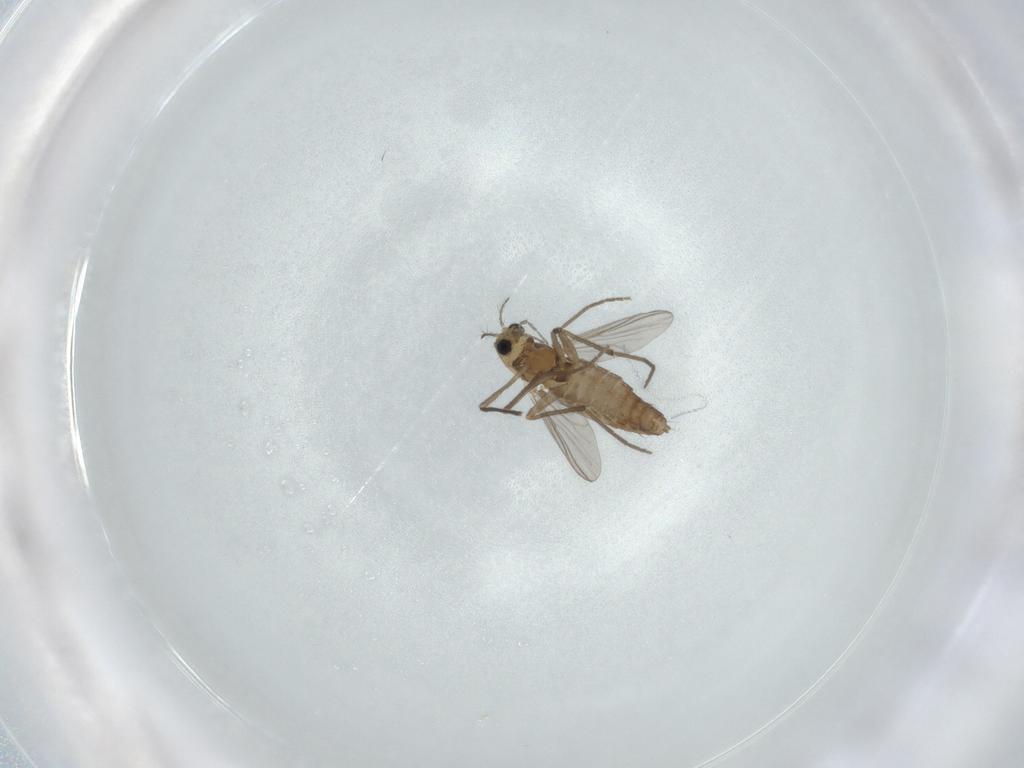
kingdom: Animalia
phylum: Arthropoda
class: Insecta
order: Diptera
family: Chironomidae
